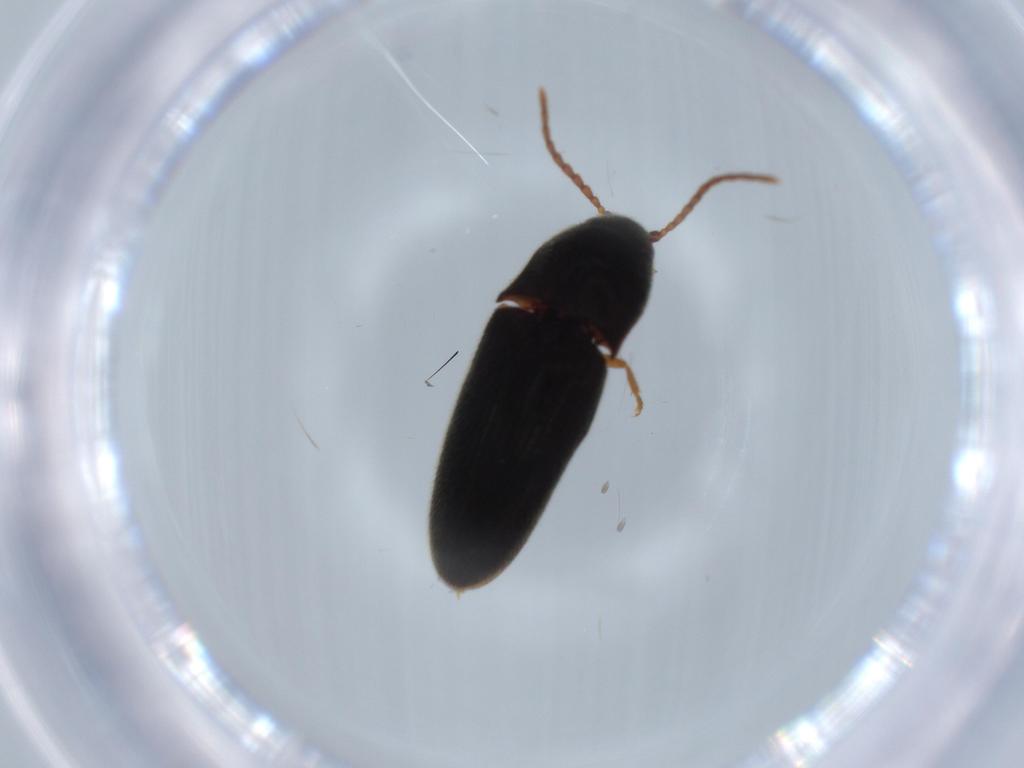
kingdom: Animalia
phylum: Arthropoda
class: Insecta
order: Coleoptera
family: Elateridae
